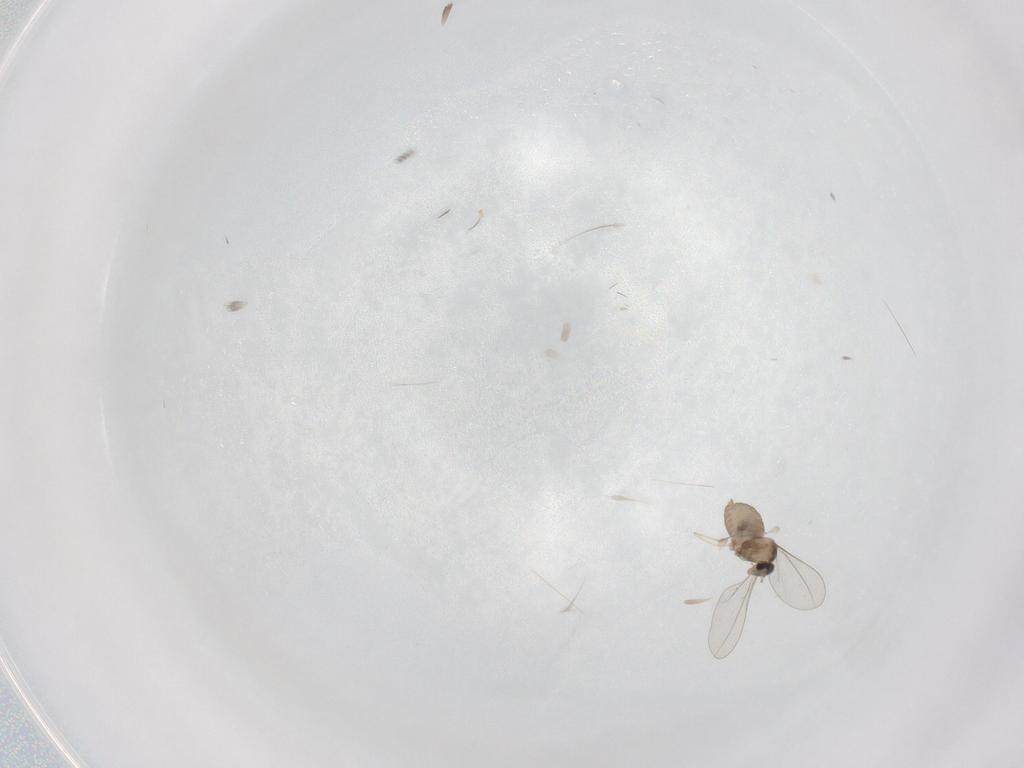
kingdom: Animalia
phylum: Arthropoda
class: Insecta
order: Diptera
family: Cecidomyiidae
